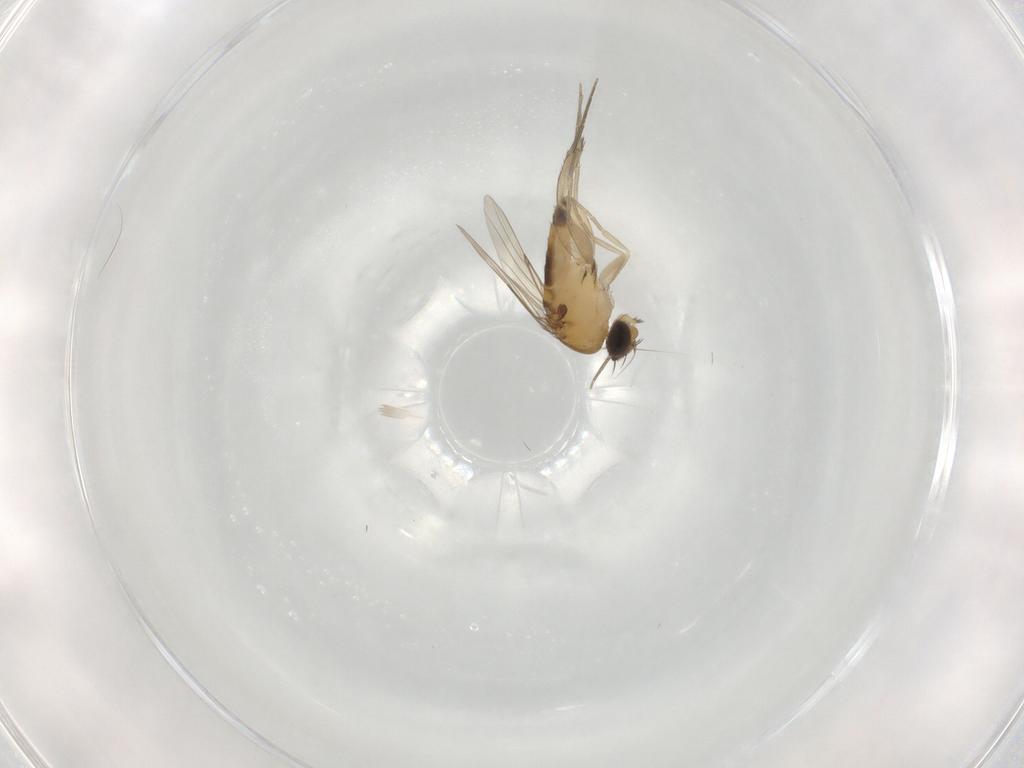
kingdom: Animalia
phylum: Arthropoda
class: Insecta
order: Diptera
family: Phoridae
